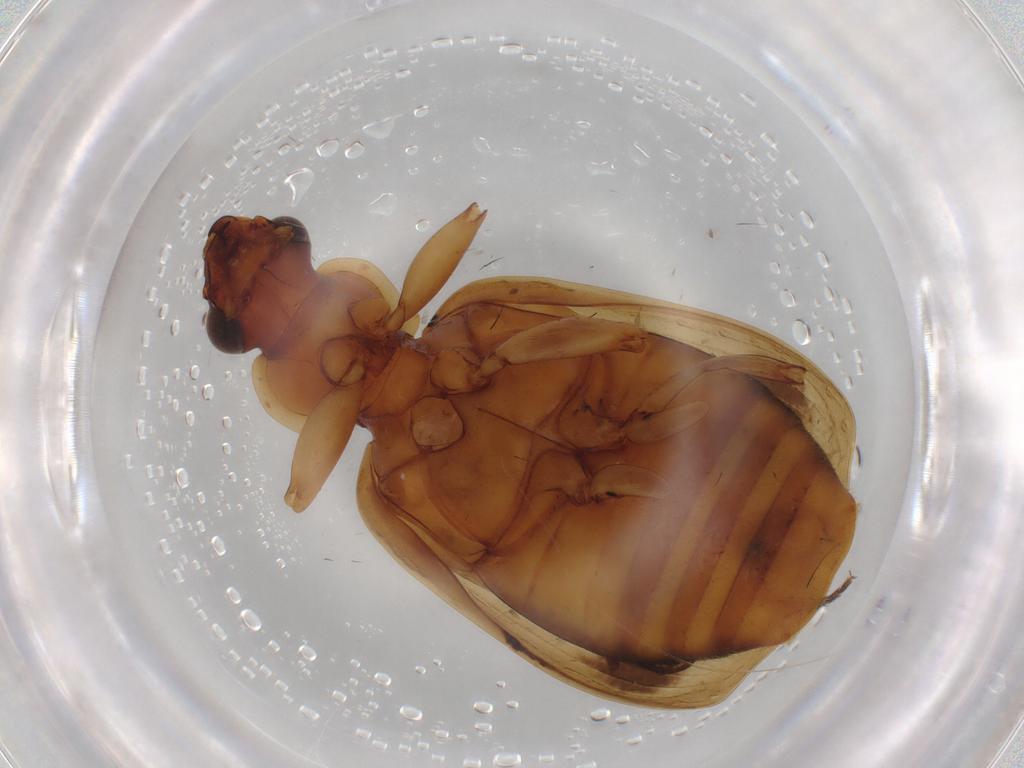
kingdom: Animalia
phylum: Arthropoda
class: Insecta
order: Coleoptera
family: Carabidae
